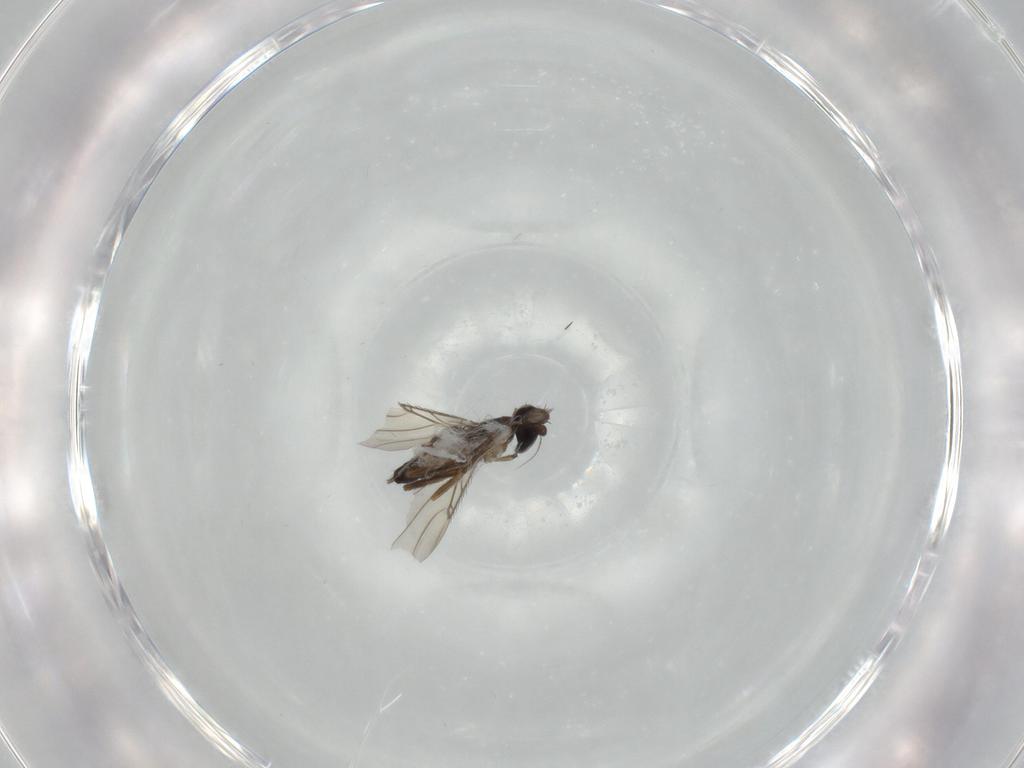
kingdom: Animalia
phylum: Arthropoda
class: Insecta
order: Diptera
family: Phoridae
